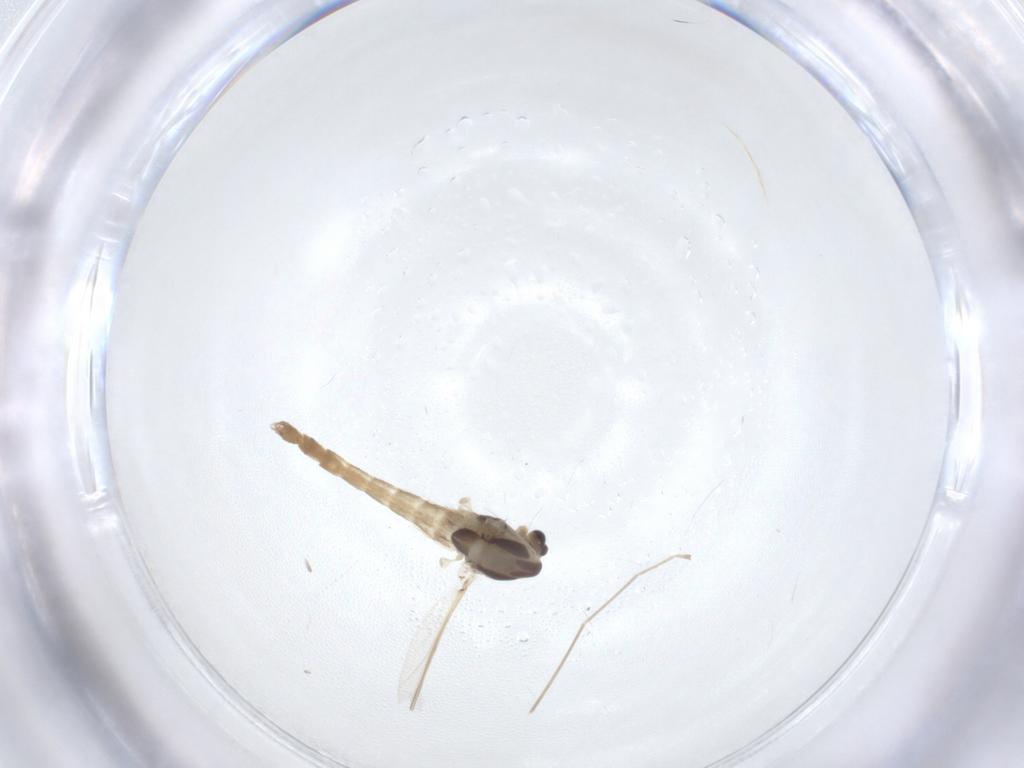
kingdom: Animalia
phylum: Arthropoda
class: Insecta
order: Diptera
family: Chironomidae
